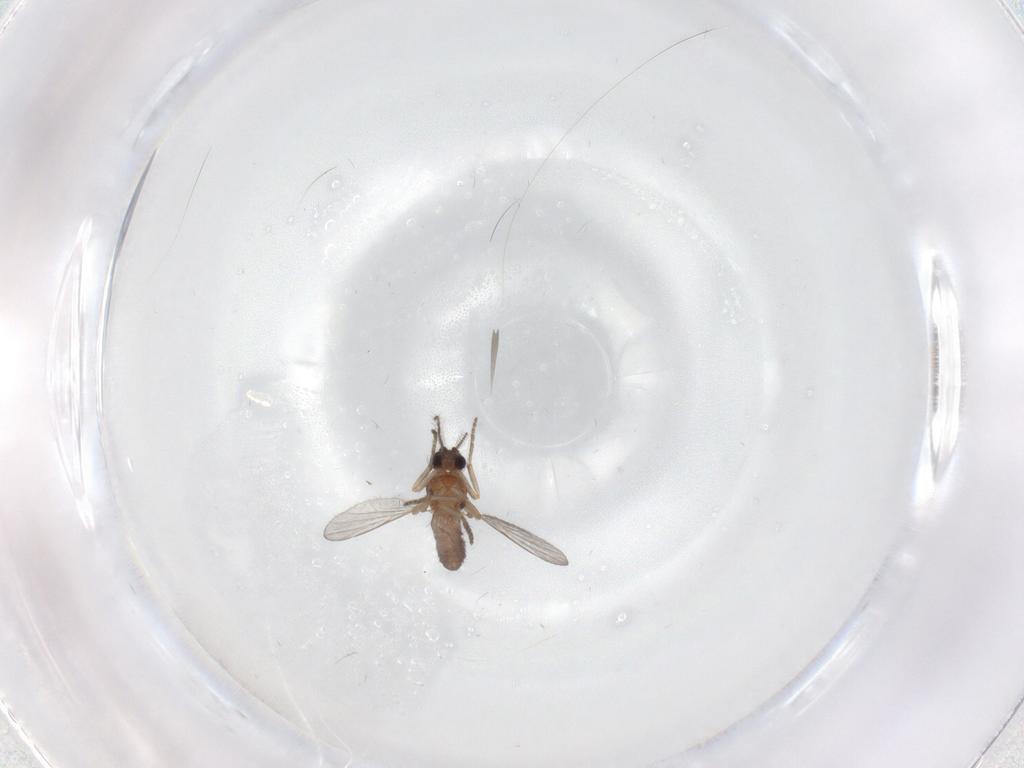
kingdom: Animalia
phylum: Arthropoda
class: Insecta
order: Diptera
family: Ceratopogonidae
